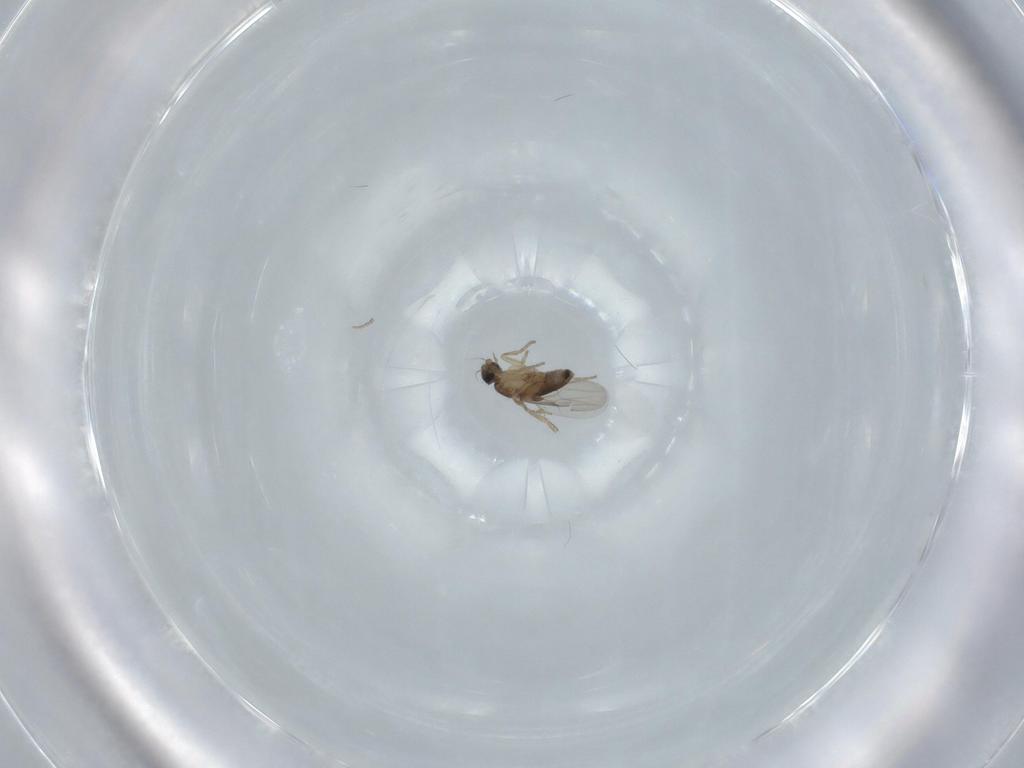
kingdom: Animalia
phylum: Arthropoda
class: Insecta
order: Diptera
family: Phoridae
